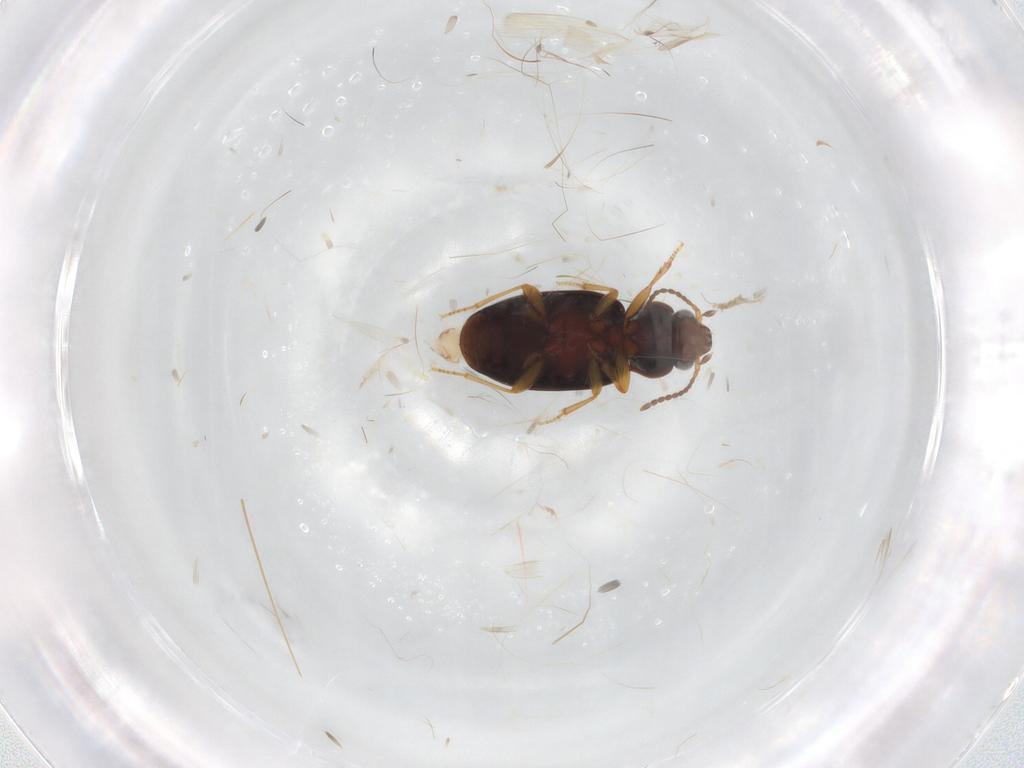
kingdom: Animalia
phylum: Arthropoda
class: Insecta
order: Coleoptera
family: Carabidae
